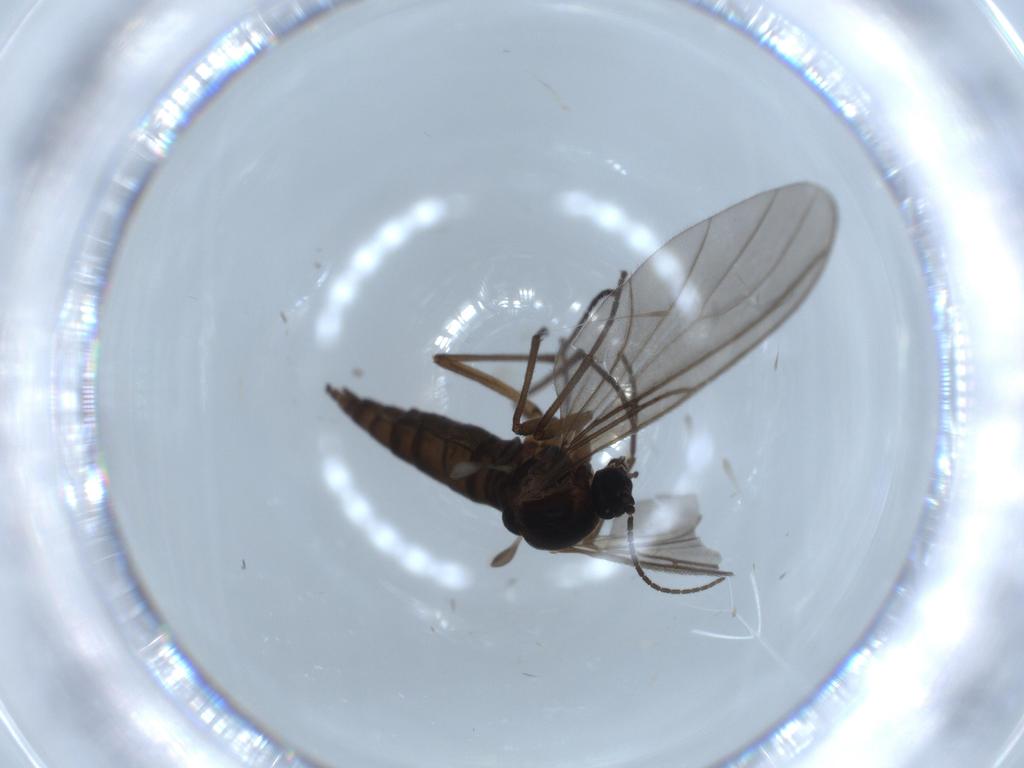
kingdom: Animalia
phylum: Arthropoda
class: Insecta
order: Diptera
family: Sciaridae
